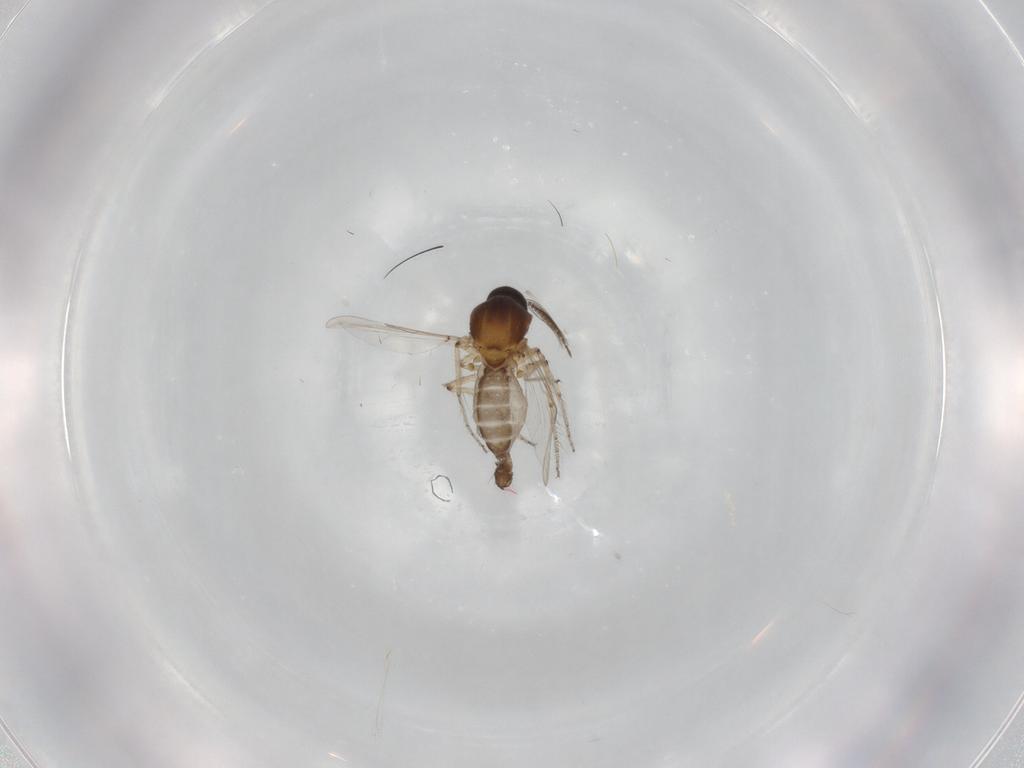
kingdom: Animalia
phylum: Arthropoda
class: Insecta
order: Diptera
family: Ceratopogonidae
